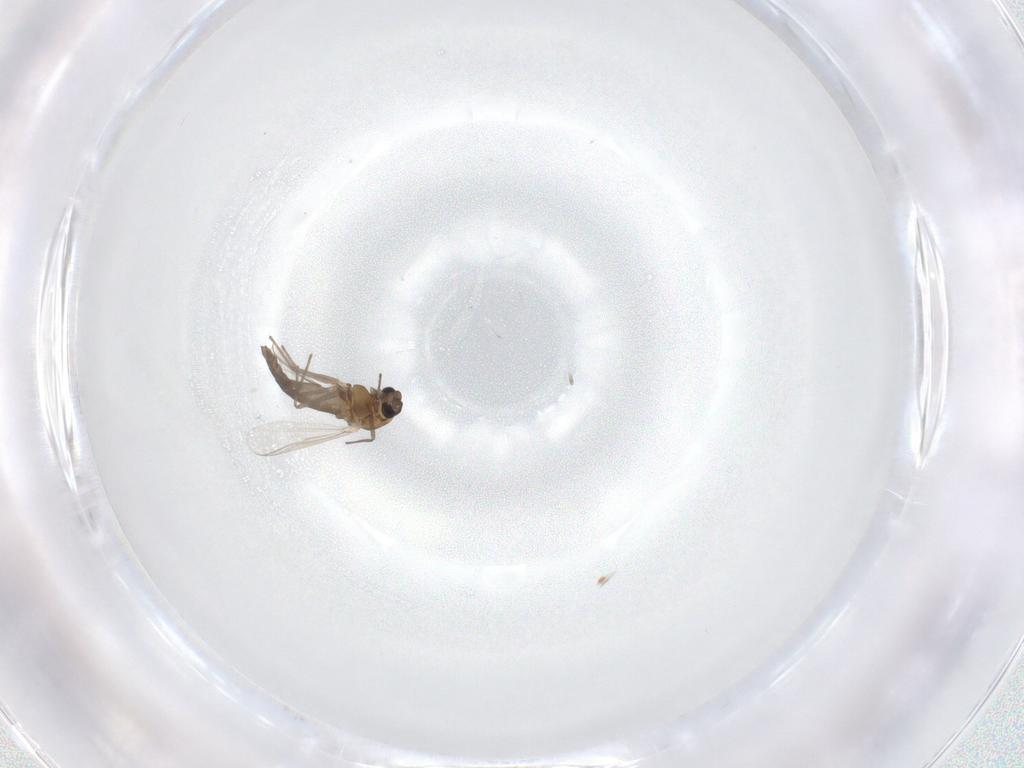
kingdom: Animalia
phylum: Arthropoda
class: Insecta
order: Diptera
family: Chironomidae
